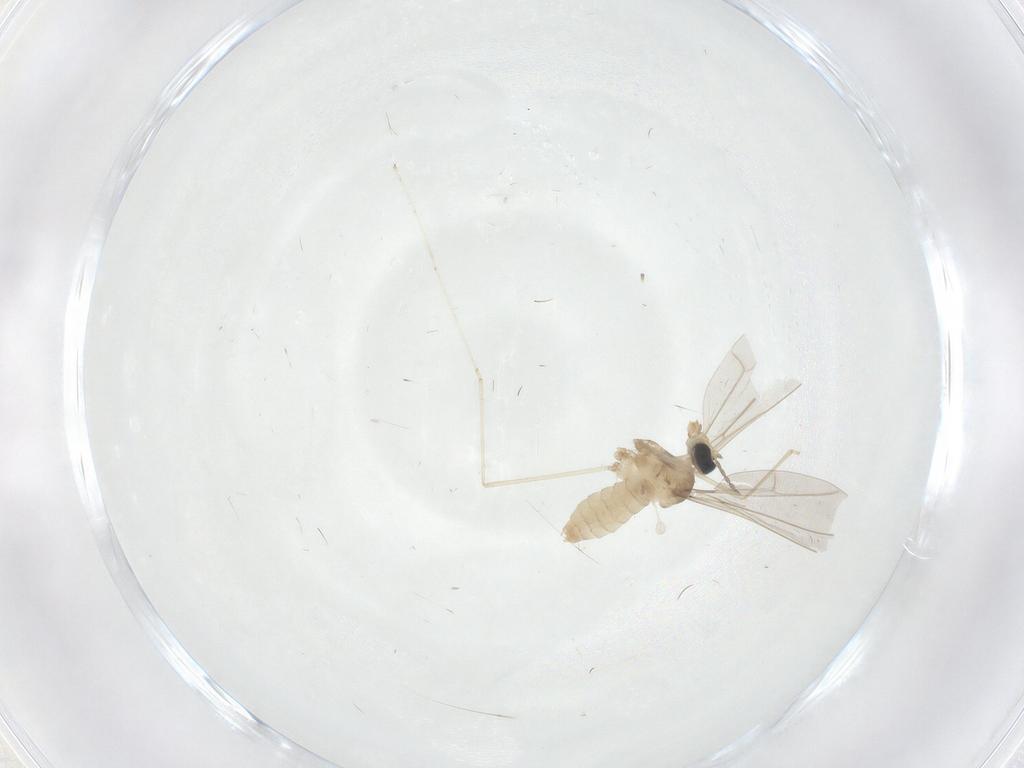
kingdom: Animalia
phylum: Arthropoda
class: Insecta
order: Diptera
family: Cecidomyiidae
